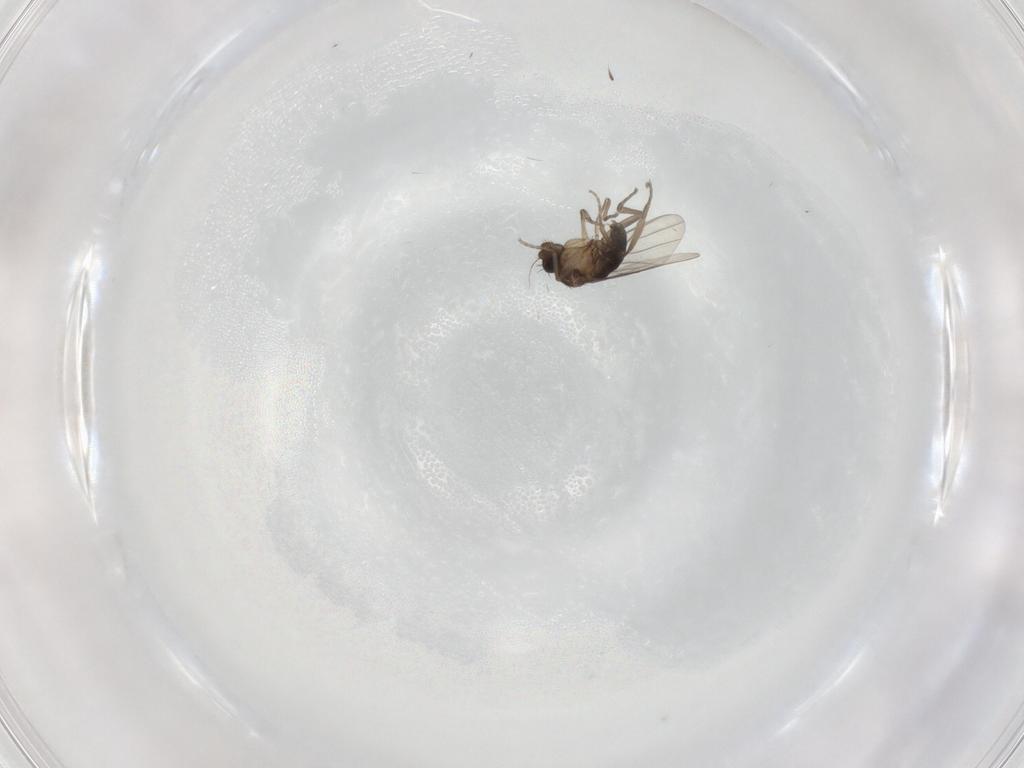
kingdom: Animalia
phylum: Arthropoda
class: Insecta
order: Diptera
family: Phoridae
